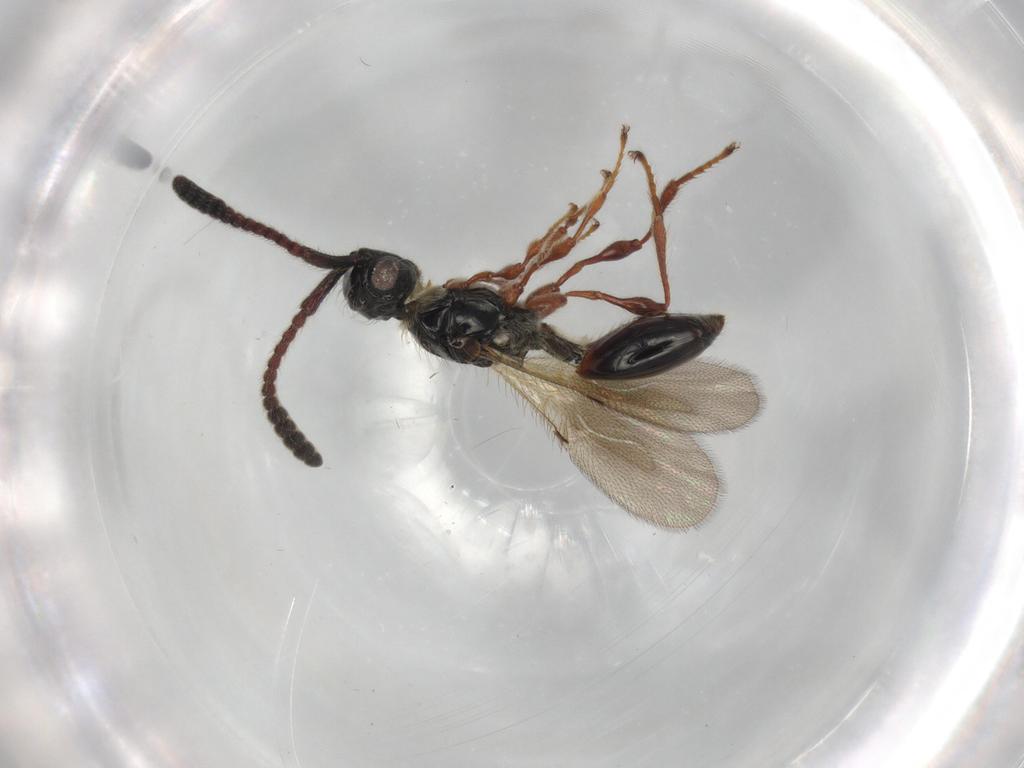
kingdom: Animalia
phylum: Arthropoda
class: Insecta
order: Hymenoptera
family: Diapriidae
